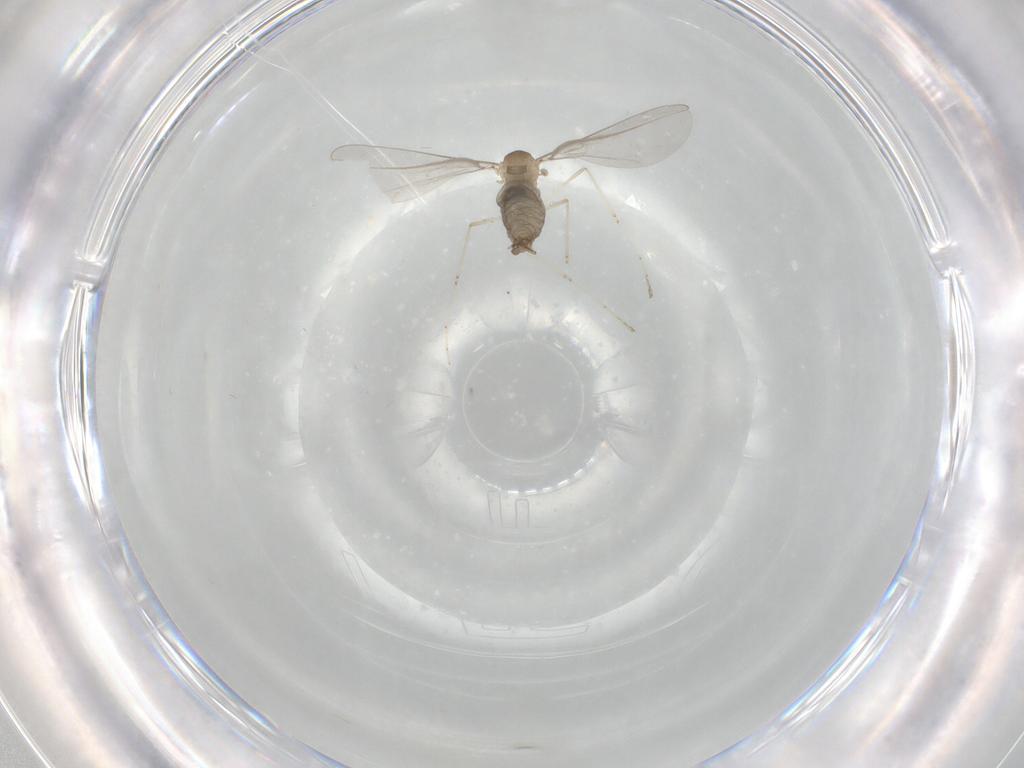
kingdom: Animalia
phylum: Arthropoda
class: Insecta
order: Diptera
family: Cecidomyiidae
